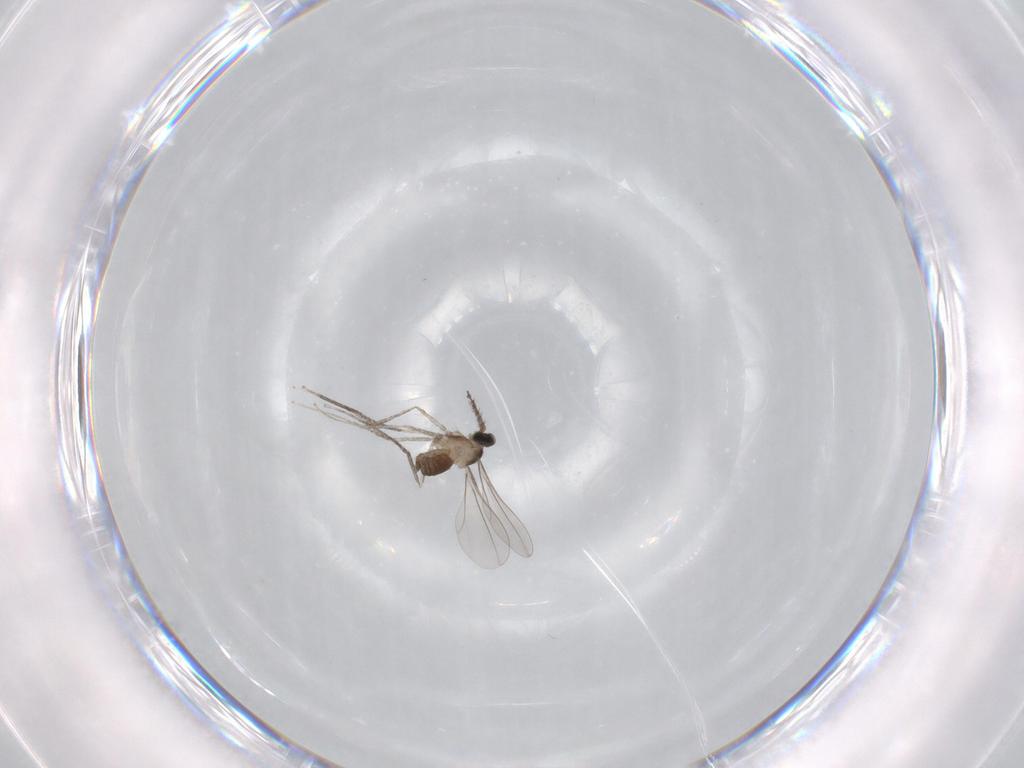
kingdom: Animalia
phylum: Arthropoda
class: Insecta
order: Diptera
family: Cecidomyiidae
